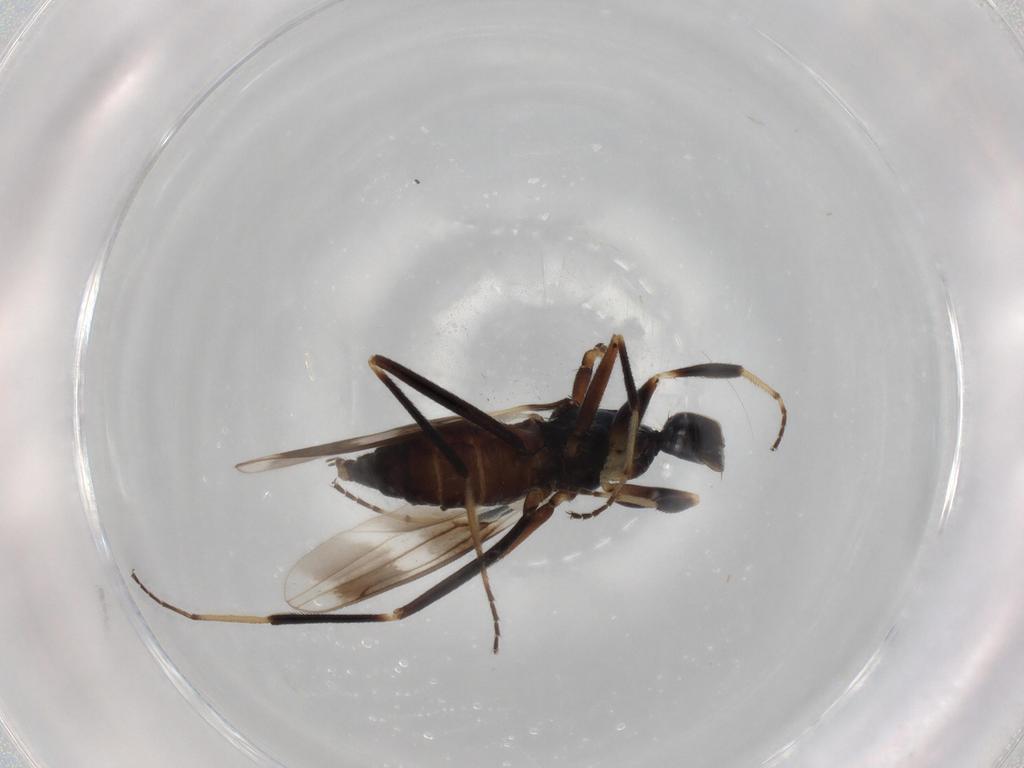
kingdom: Animalia
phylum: Arthropoda
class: Insecta
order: Diptera
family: Hybotidae
